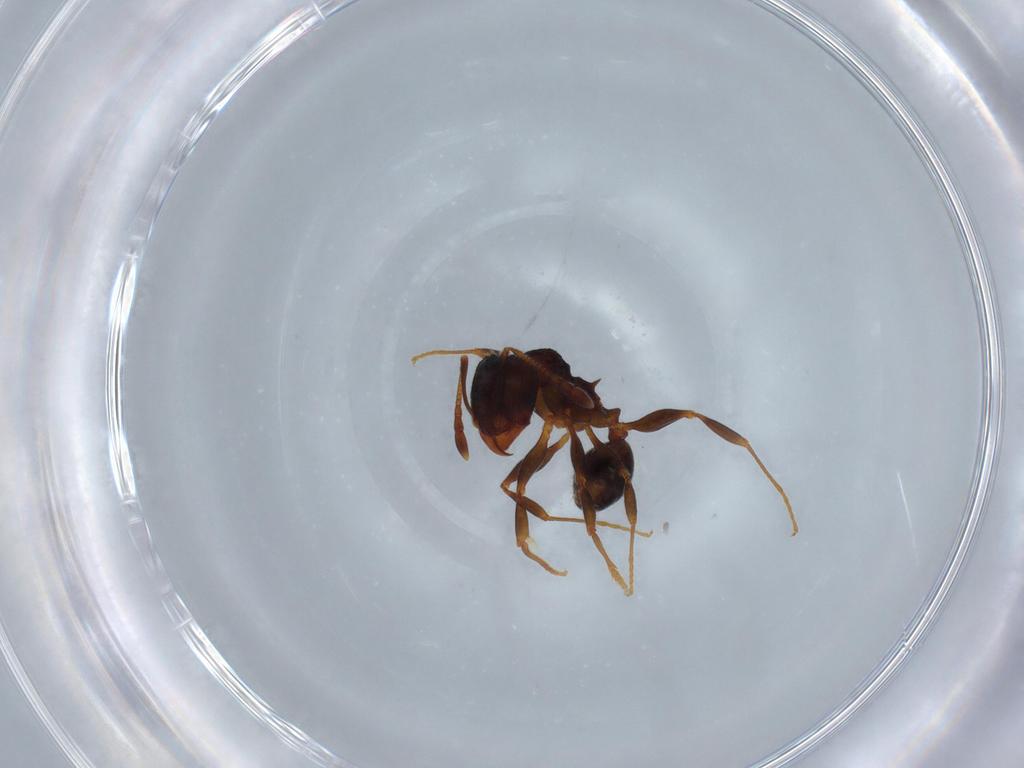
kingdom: Animalia
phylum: Arthropoda
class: Insecta
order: Hymenoptera
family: Formicidae
